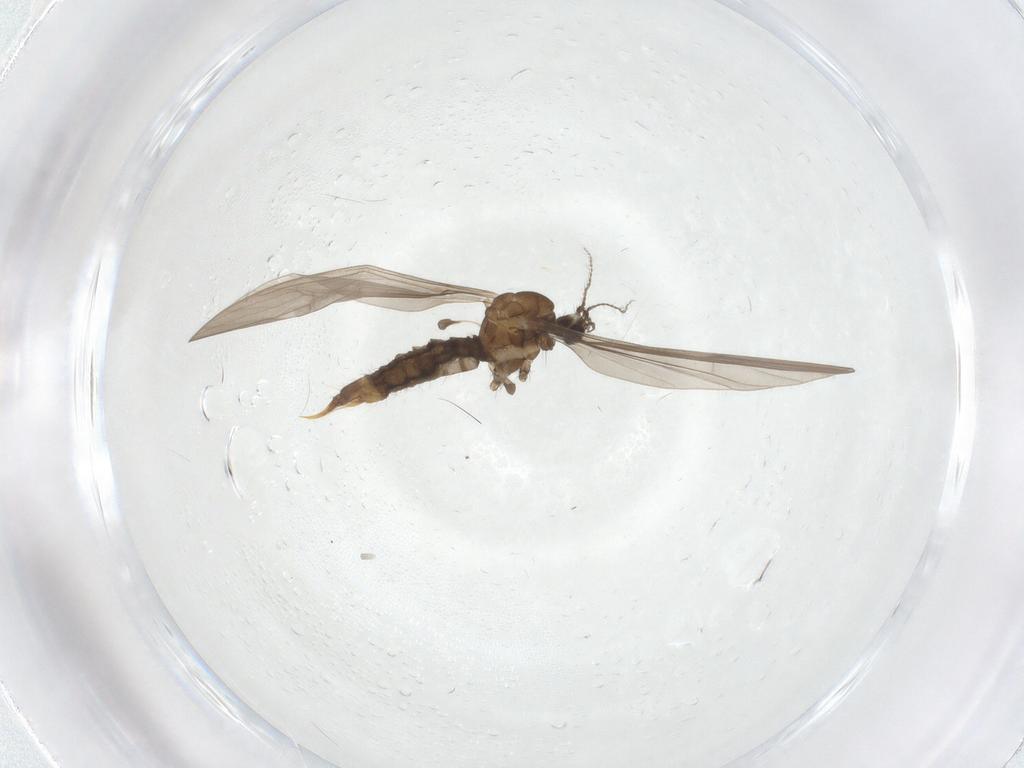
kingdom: Animalia
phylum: Arthropoda
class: Insecta
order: Diptera
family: Limoniidae
